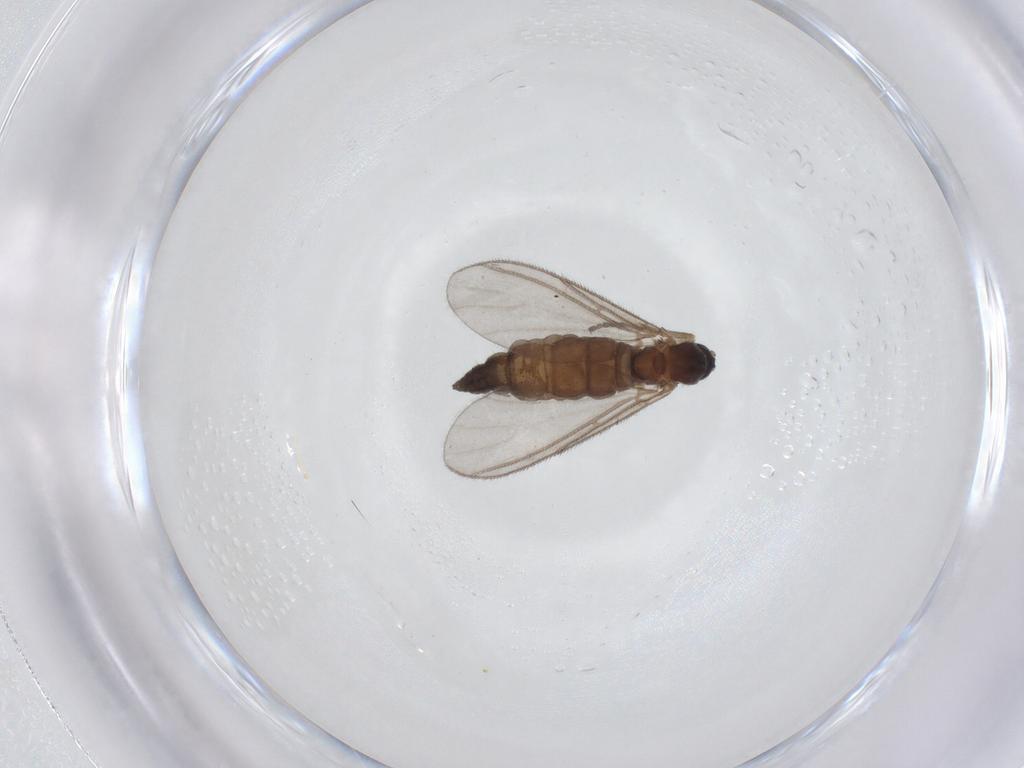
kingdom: Animalia
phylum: Arthropoda
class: Insecta
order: Diptera
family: Sciaridae
